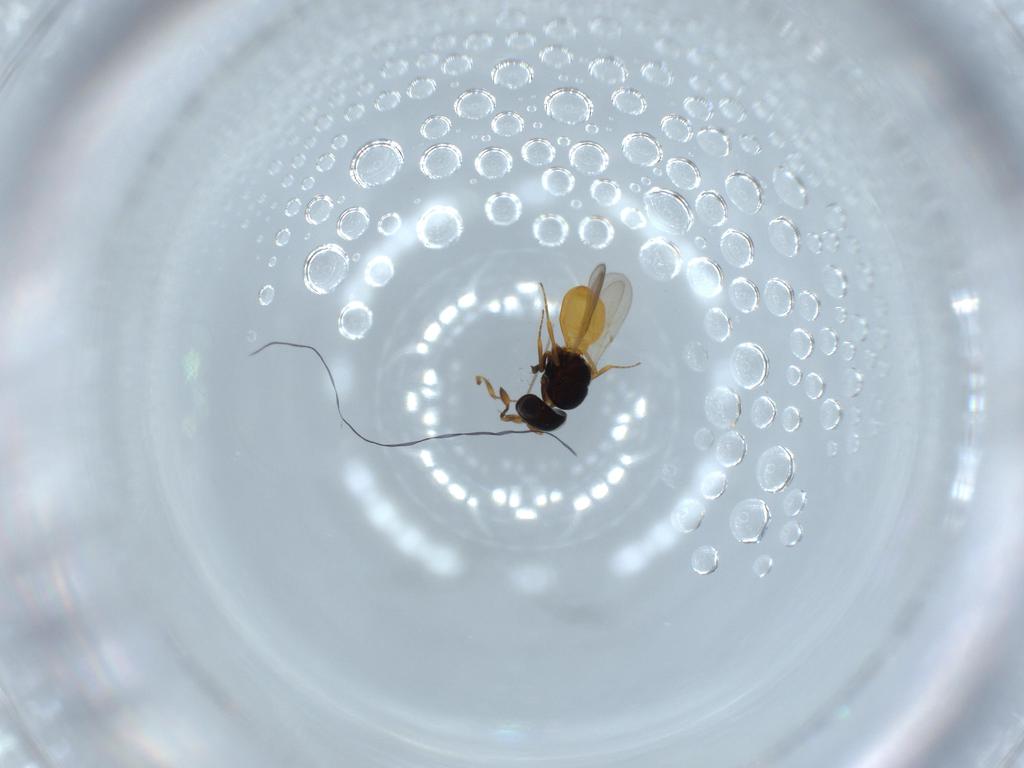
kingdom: Animalia
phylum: Arthropoda
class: Insecta
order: Hymenoptera
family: Scelionidae
